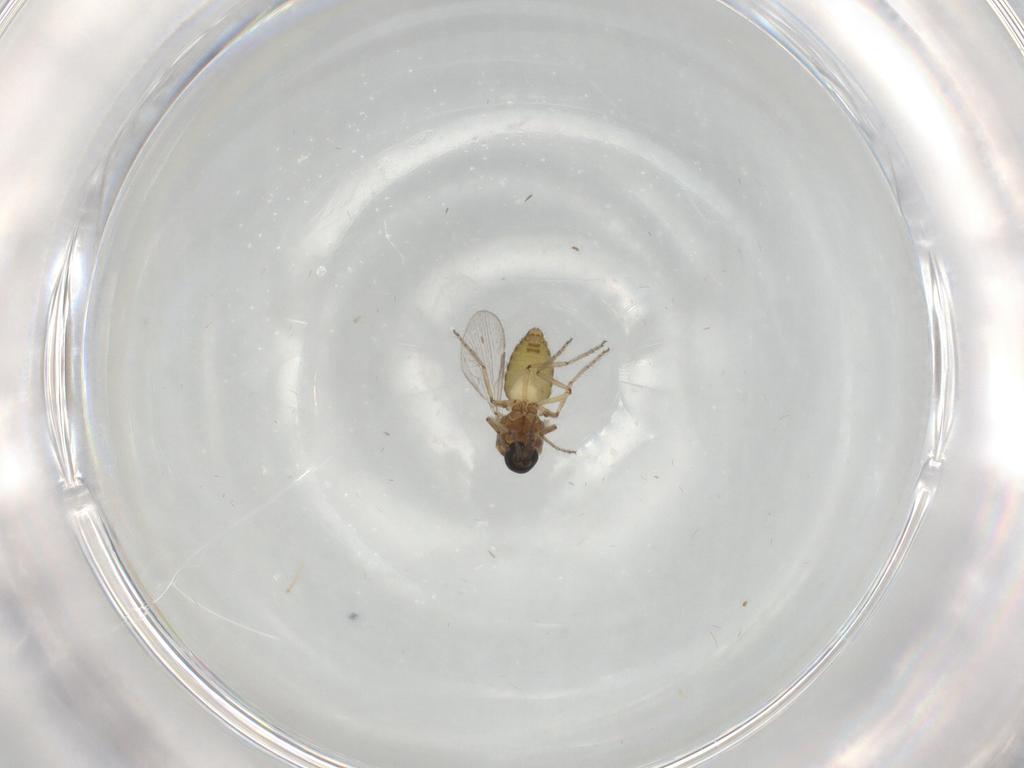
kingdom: Animalia
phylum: Arthropoda
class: Insecta
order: Diptera
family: Ceratopogonidae
